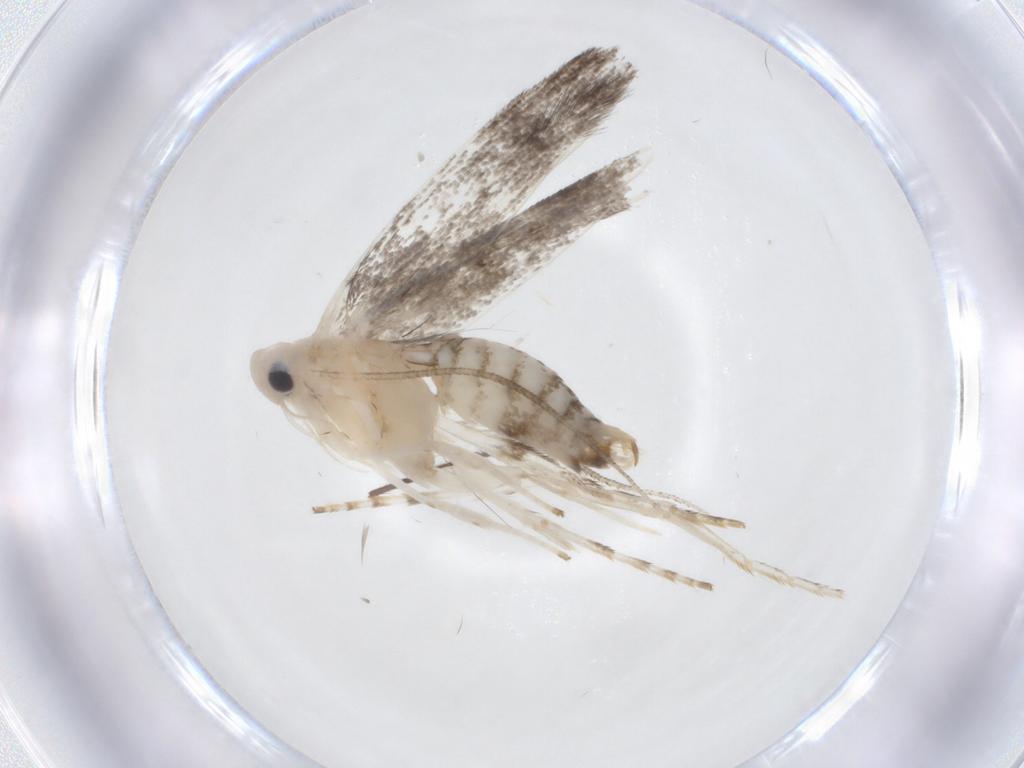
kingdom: Animalia
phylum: Arthropoda
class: Insecta
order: Lepidoptera
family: Gelechiidae
